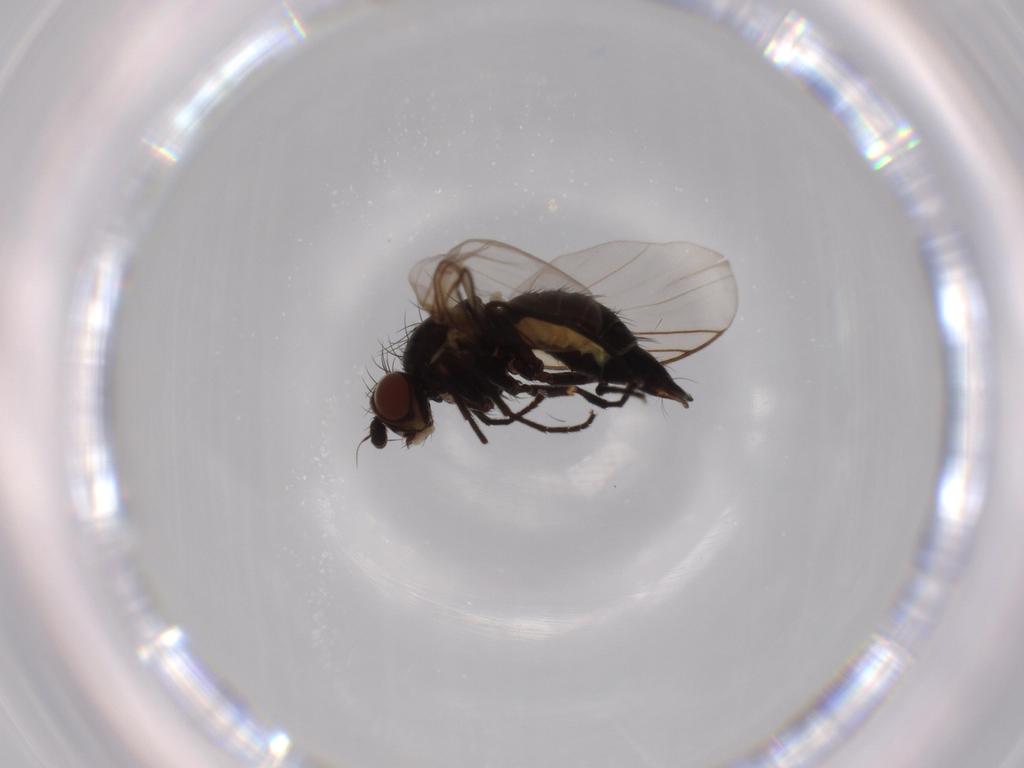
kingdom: Animalia
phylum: Arthropoda
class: Insecta
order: Diptera
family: Agromyzidae
